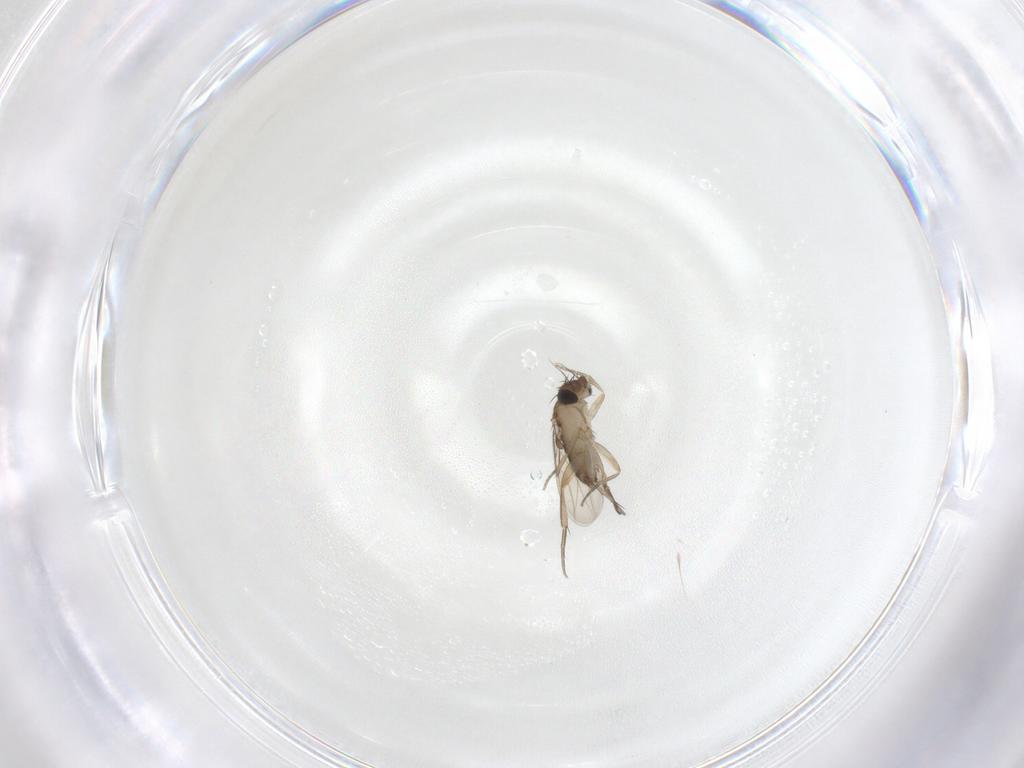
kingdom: Animalia
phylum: Arthropoda
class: Insecta
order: Diptera
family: Phoridae
